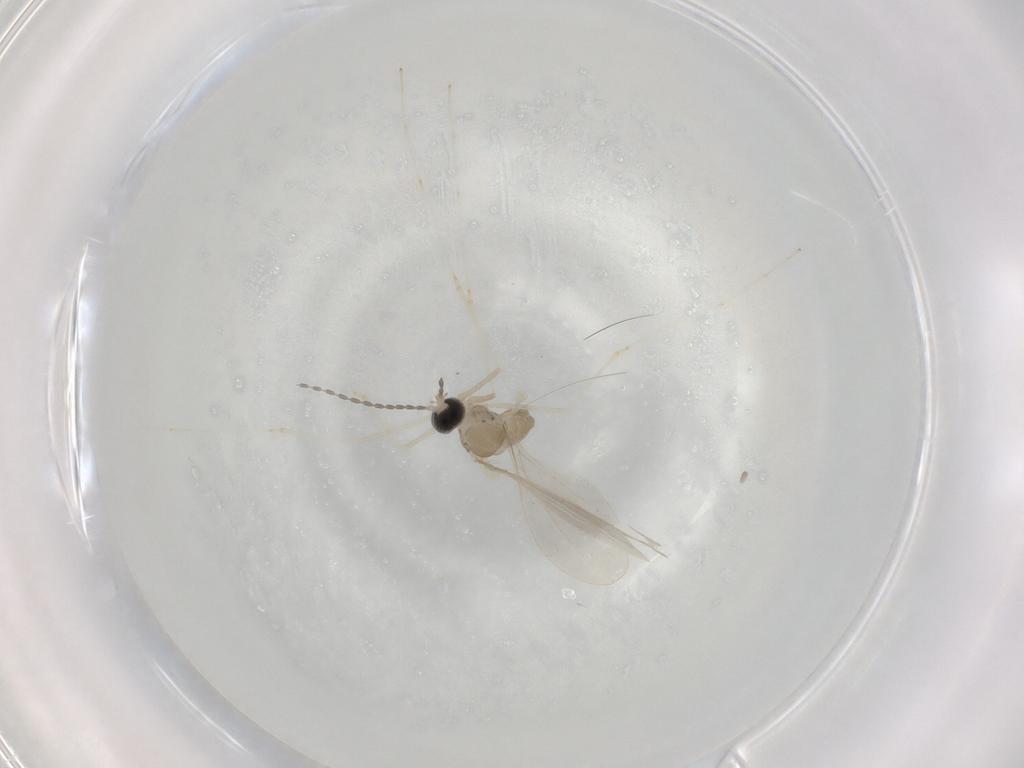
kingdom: Animalia
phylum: Arthropoda
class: Insecta
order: Diptera
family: Cecidomyiidae
